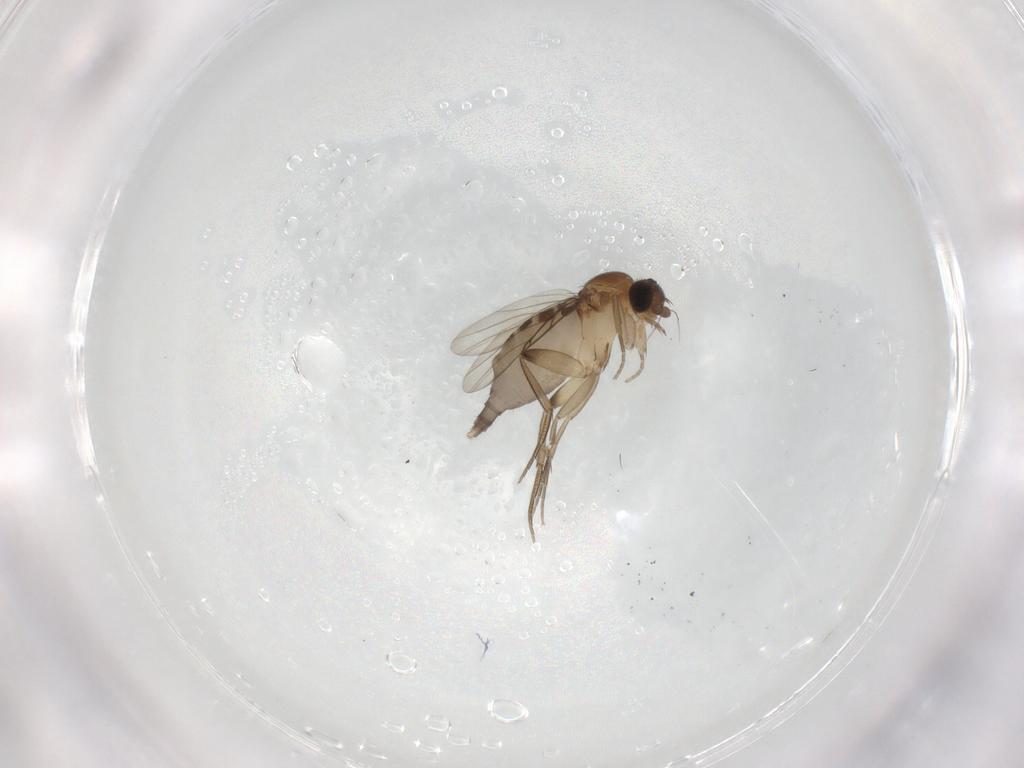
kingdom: Animalia
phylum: Arthropoda
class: Insecta
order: Diptera
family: Phoridae
